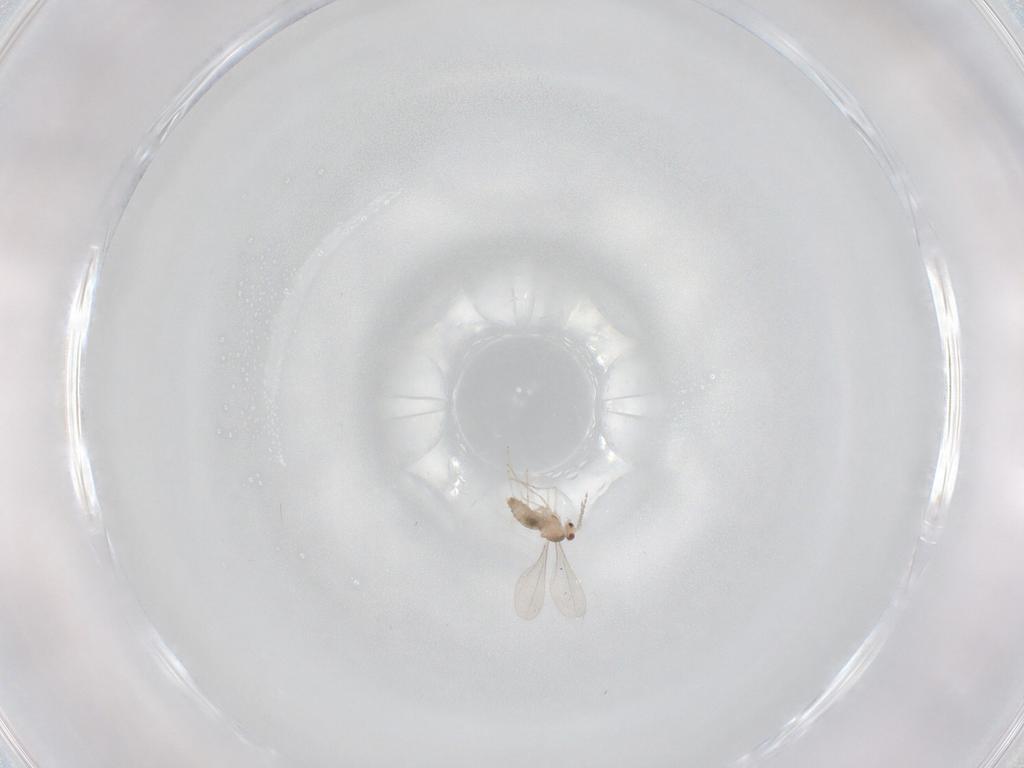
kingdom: Animalia
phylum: Arthropoda
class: Insecta
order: Diptera
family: Cecidomyiidae
